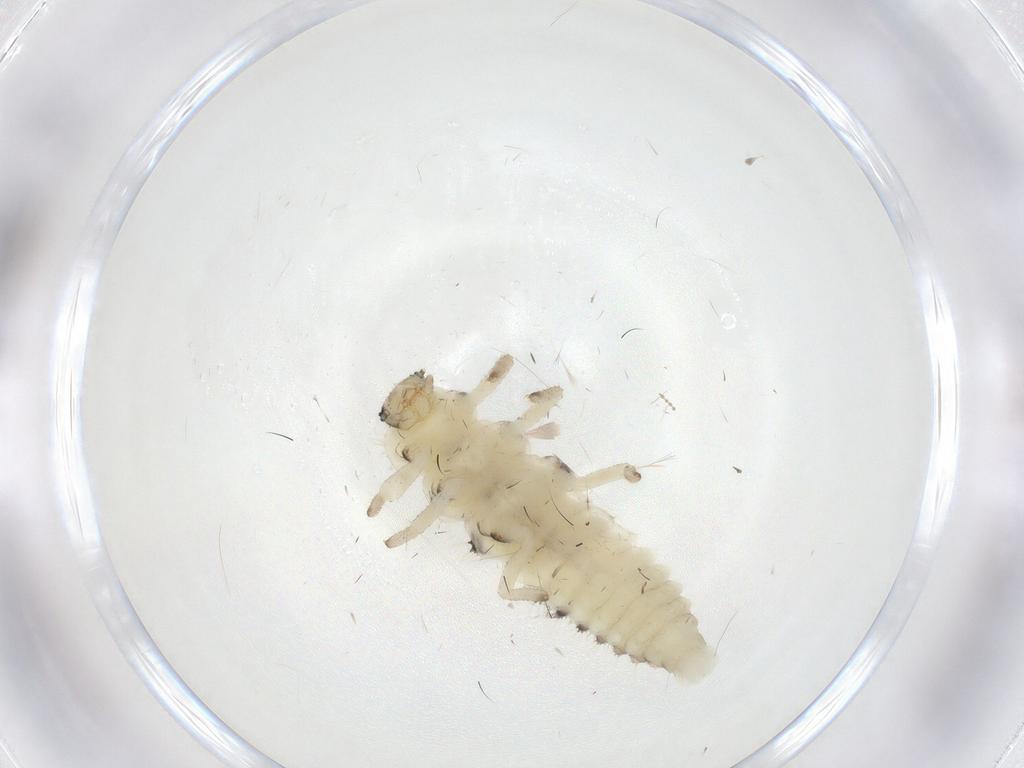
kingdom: Animalia
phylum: Arthropoda
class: Insecta
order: Coleoptera
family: Coccinellidae
